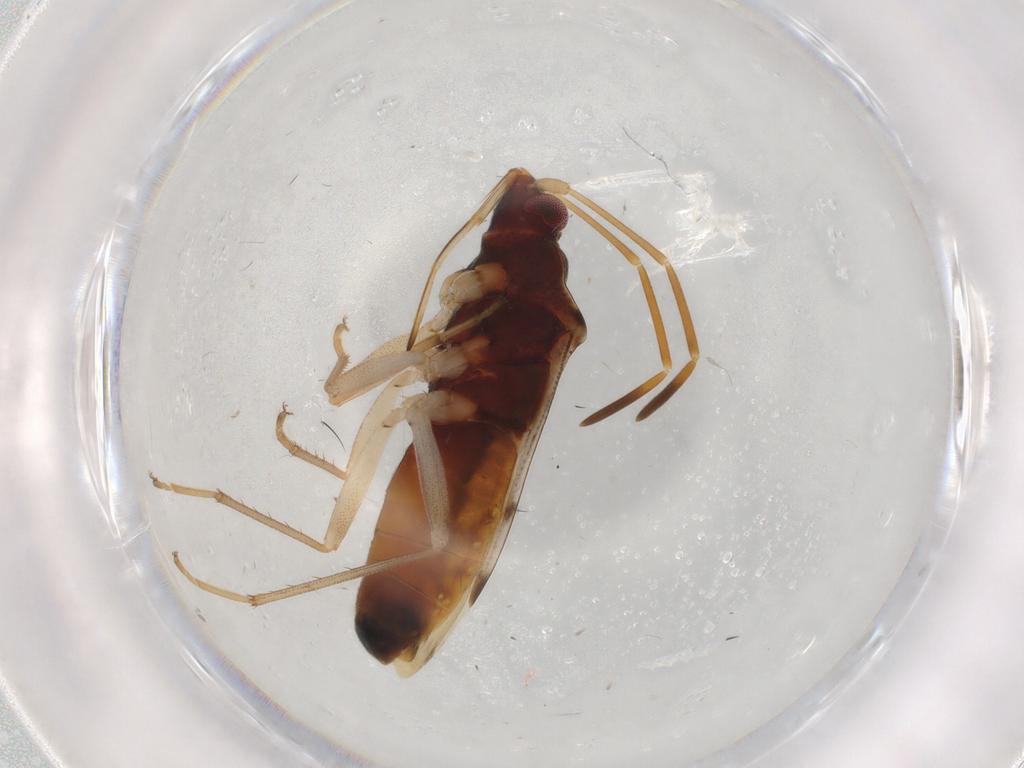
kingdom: Animalia
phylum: Arthropoda
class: Insecta
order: Hemiptera
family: Rhyparochromidae
